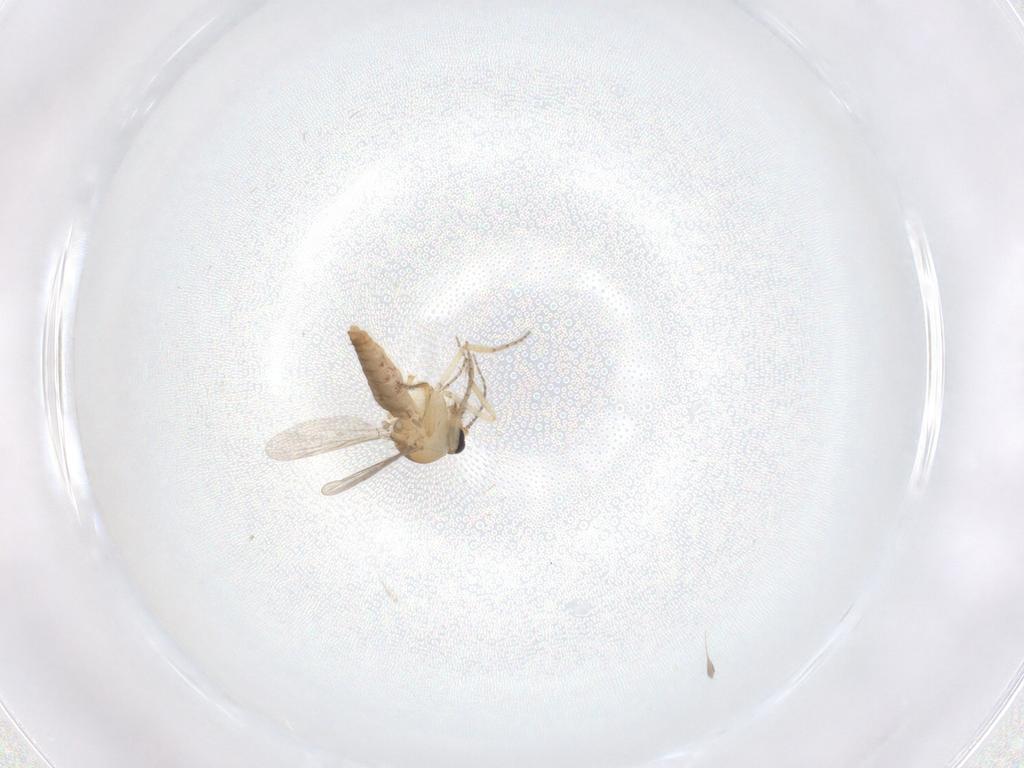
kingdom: Animalia
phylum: Arthropoda
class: Insecta
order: Diptera
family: Ceratopogonidae
